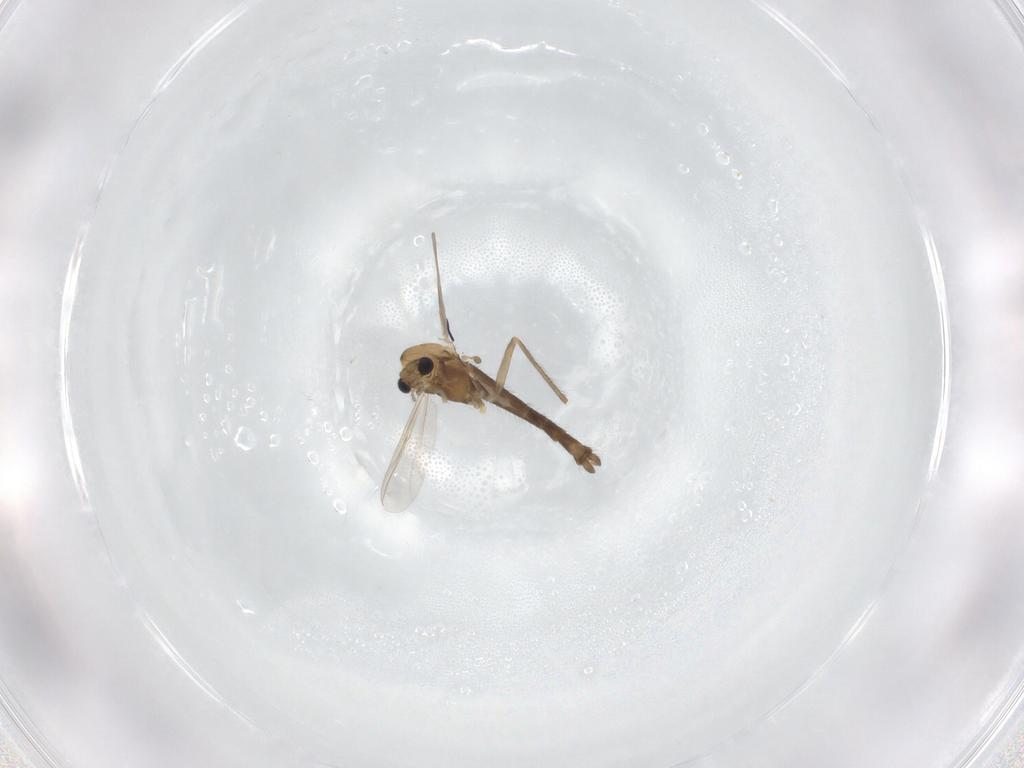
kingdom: Animalia
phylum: Arthropoda
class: Insecta
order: Diptera
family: Chironomidae
